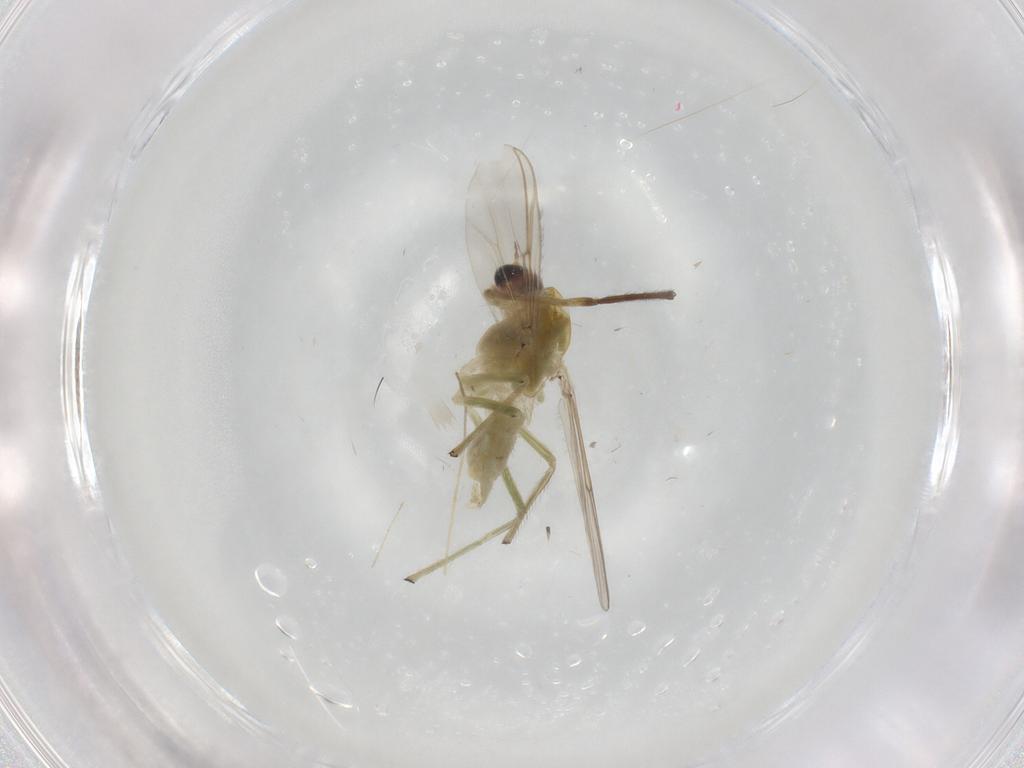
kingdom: Animalia
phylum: Arthropoda
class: Insecta
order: Diptera
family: Chironomidae
